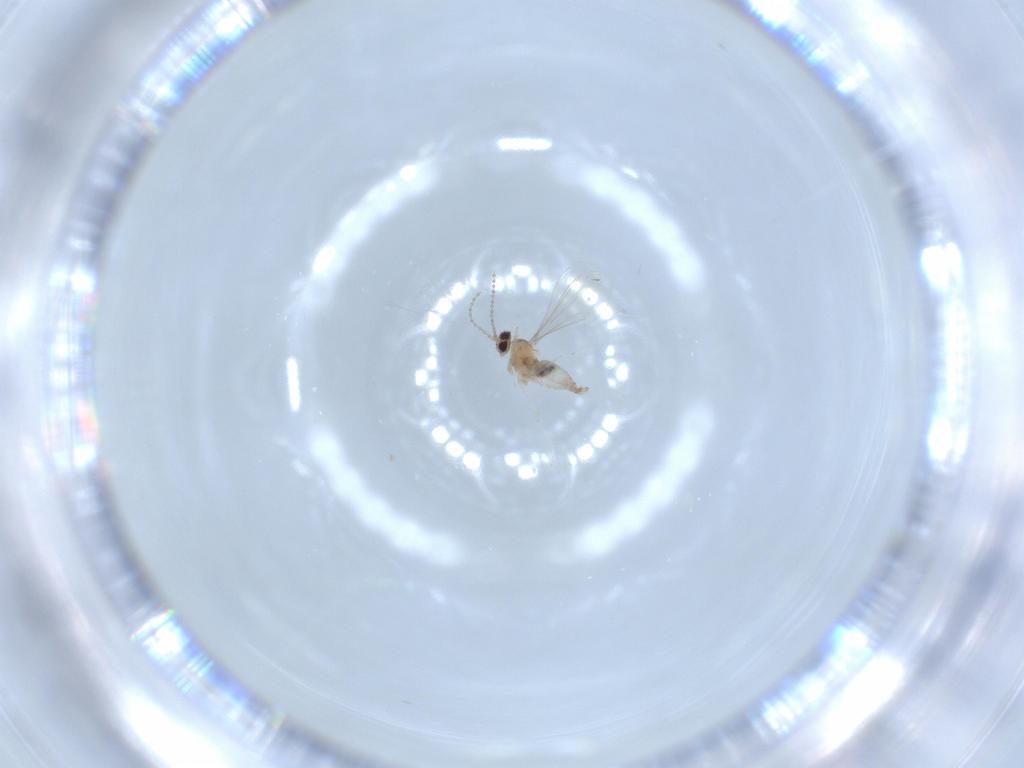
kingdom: Animalia
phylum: Arthropoda
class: Insecta
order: Diptera
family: Cecidomyiidae
